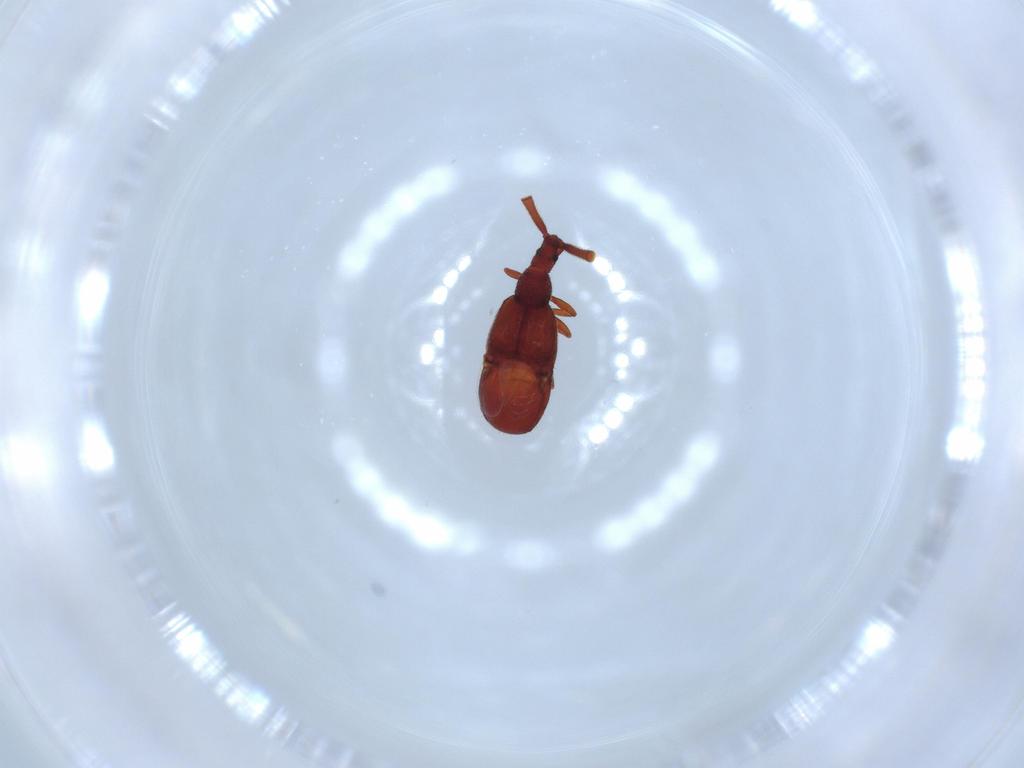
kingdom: Animalia
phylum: Arthropoda
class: Insecta
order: Coleoptera
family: Staphylinidae
